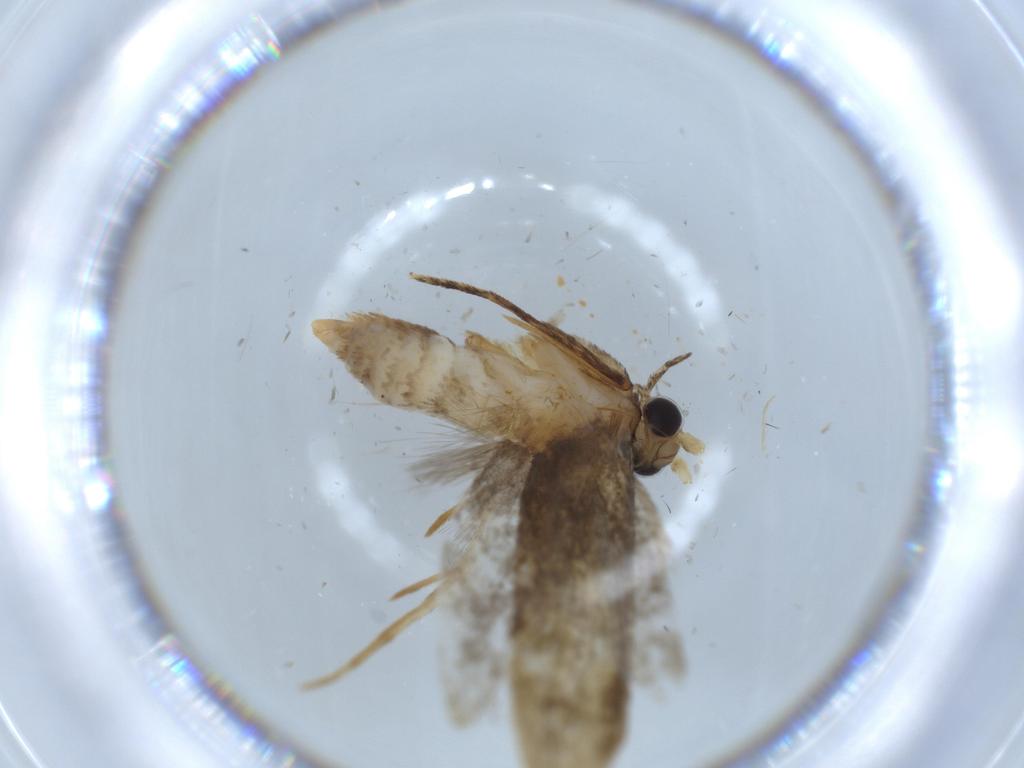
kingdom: Animalia
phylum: Arthropoda
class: Insecta
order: Lepidoptera
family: Tineidae
